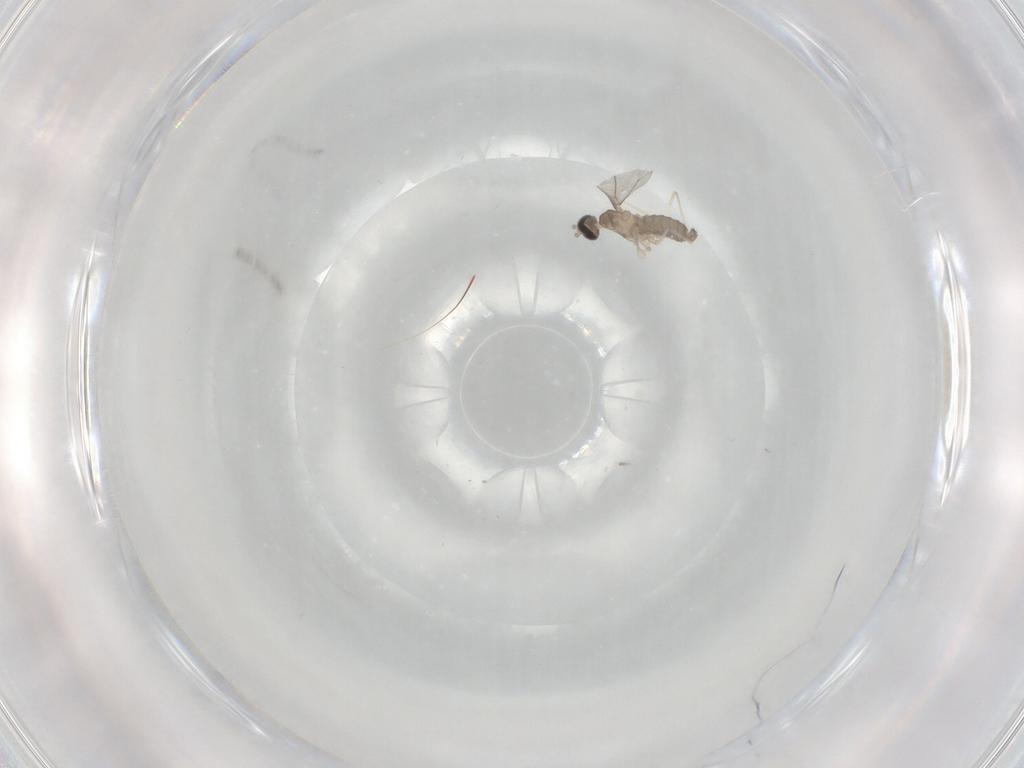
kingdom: Animalia
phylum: Arthropoda
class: Insecta
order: Diptera
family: Cecidomyiidae
